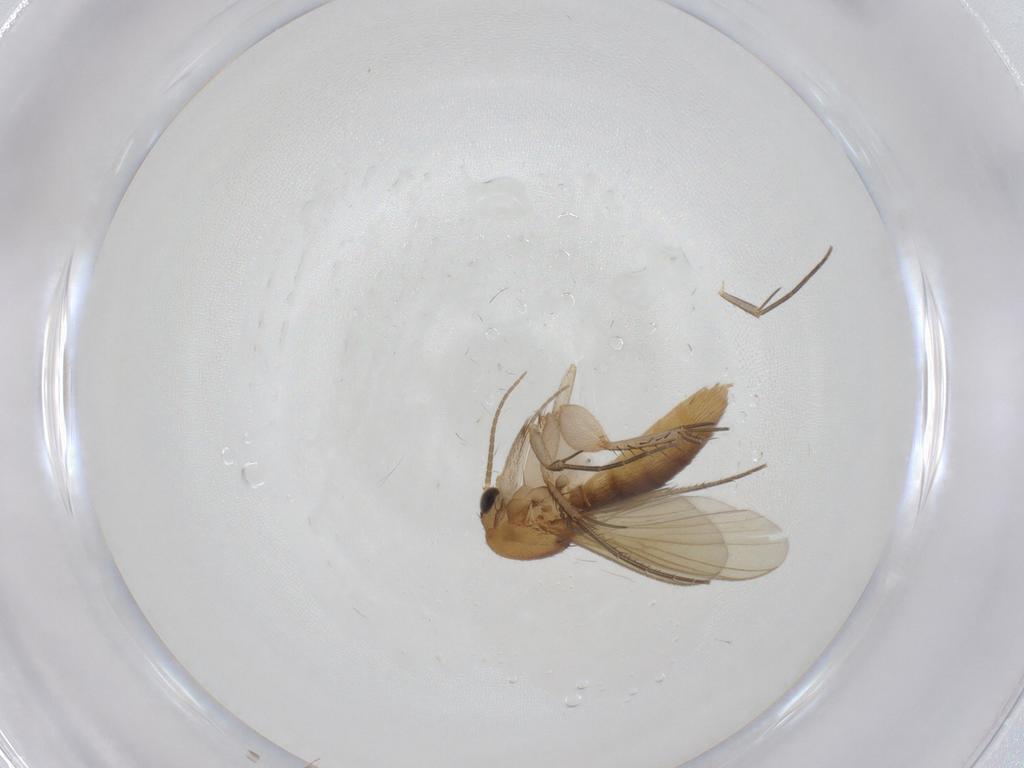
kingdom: Animalia
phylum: Arthropoda
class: Insecta
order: Diptera
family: Mycetophilidae
